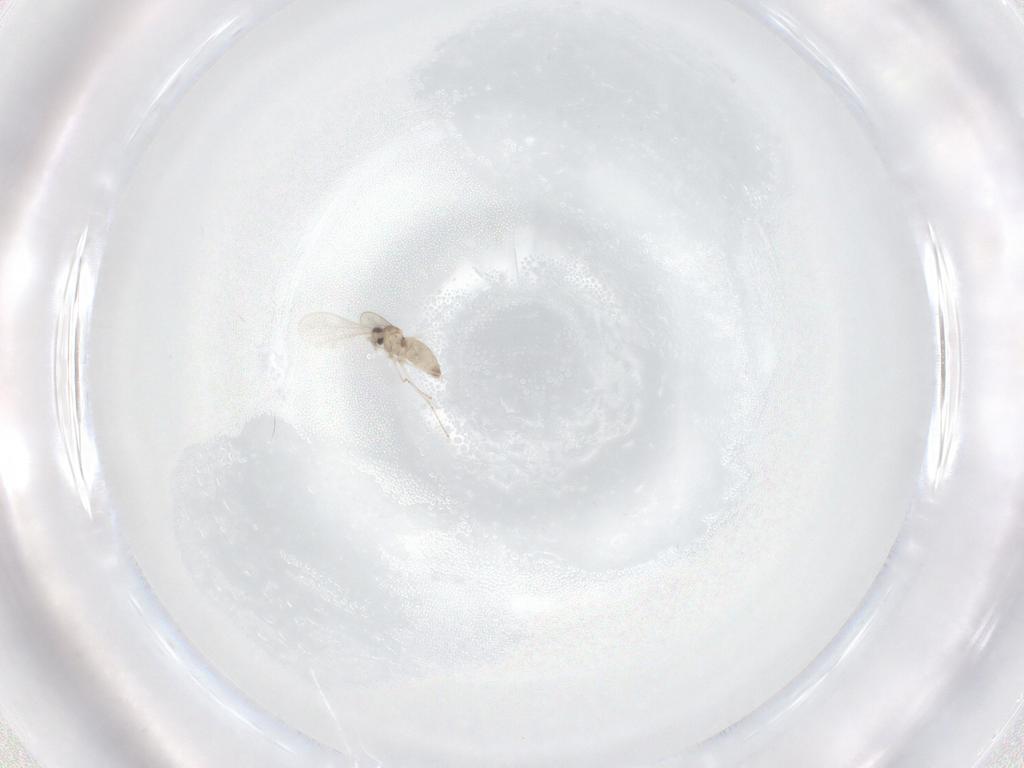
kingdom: Animalia
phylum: Arthropoda
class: Insecta
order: Diptera
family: Cecidomyiidae
